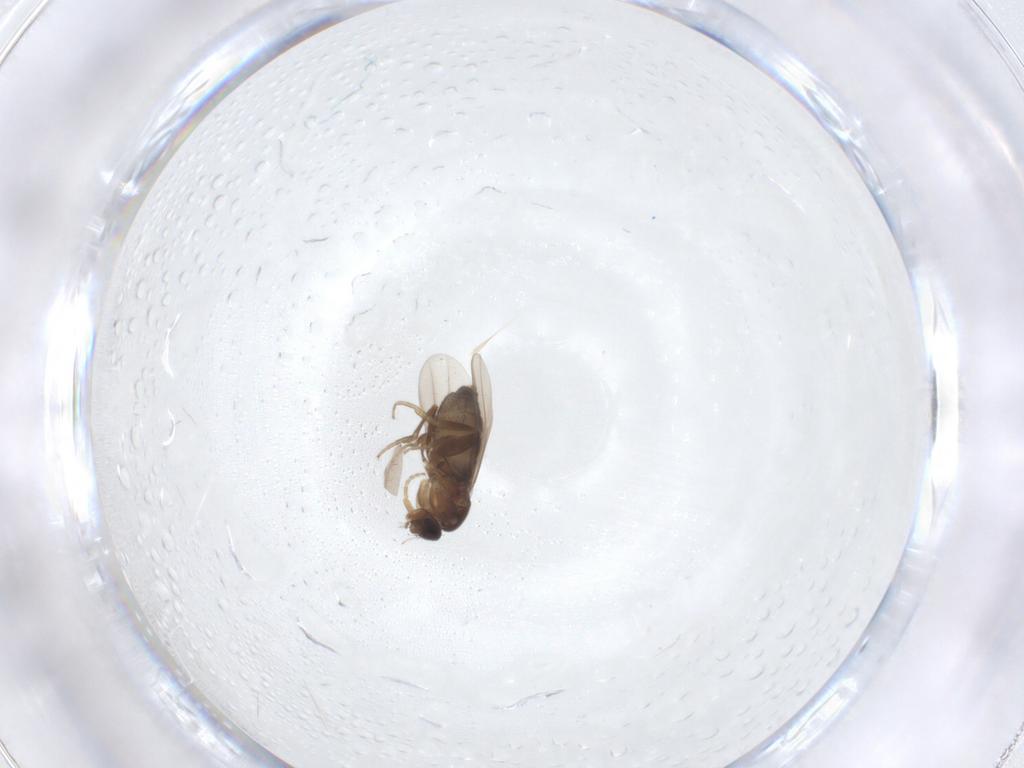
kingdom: Animalia
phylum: Arthropoda
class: Insecta
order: Diptera
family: Phoridae
